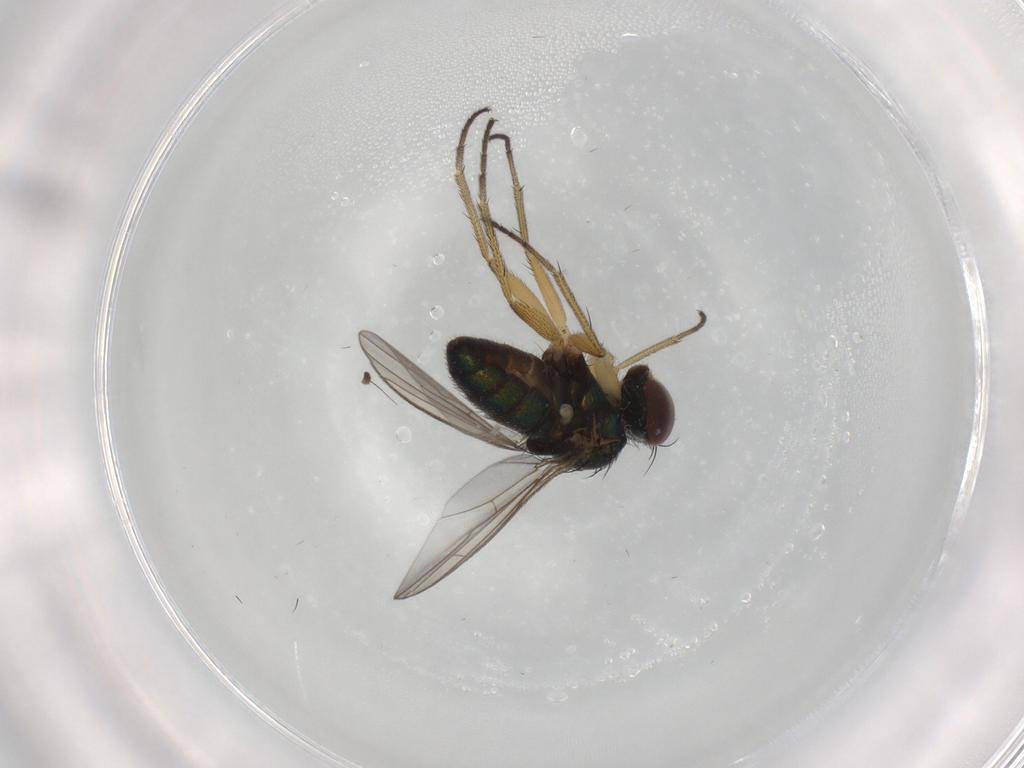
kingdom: Animalia
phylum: Arthropoda
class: Insecta
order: Diptera
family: Dolichopodidae
